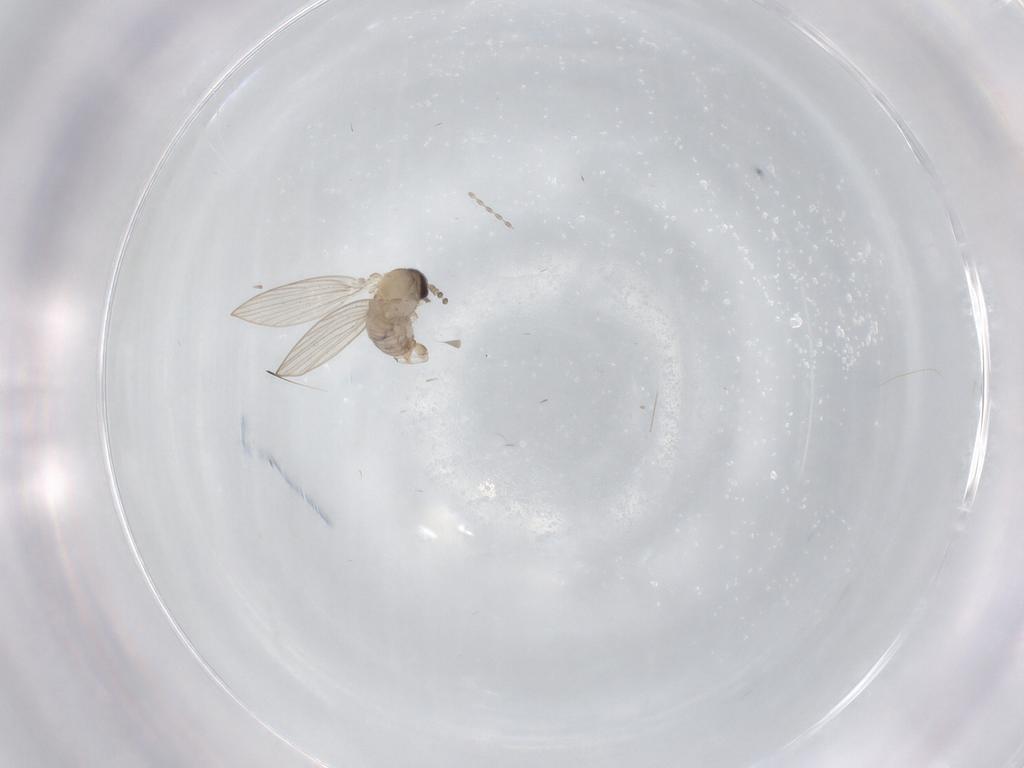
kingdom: Animalia
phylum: Arthropoda
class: Insecta
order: Diptera
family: Psychodidae
